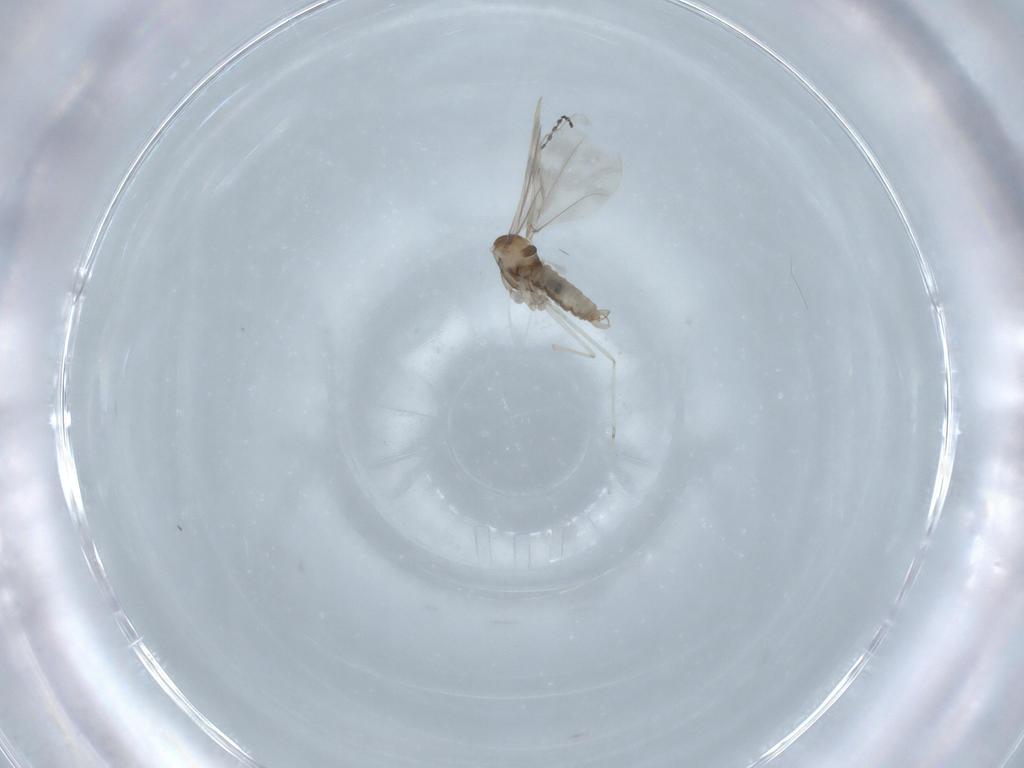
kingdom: Animalia
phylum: Arthropoda
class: Insecta
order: Diptera
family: Cecidomyiidae
